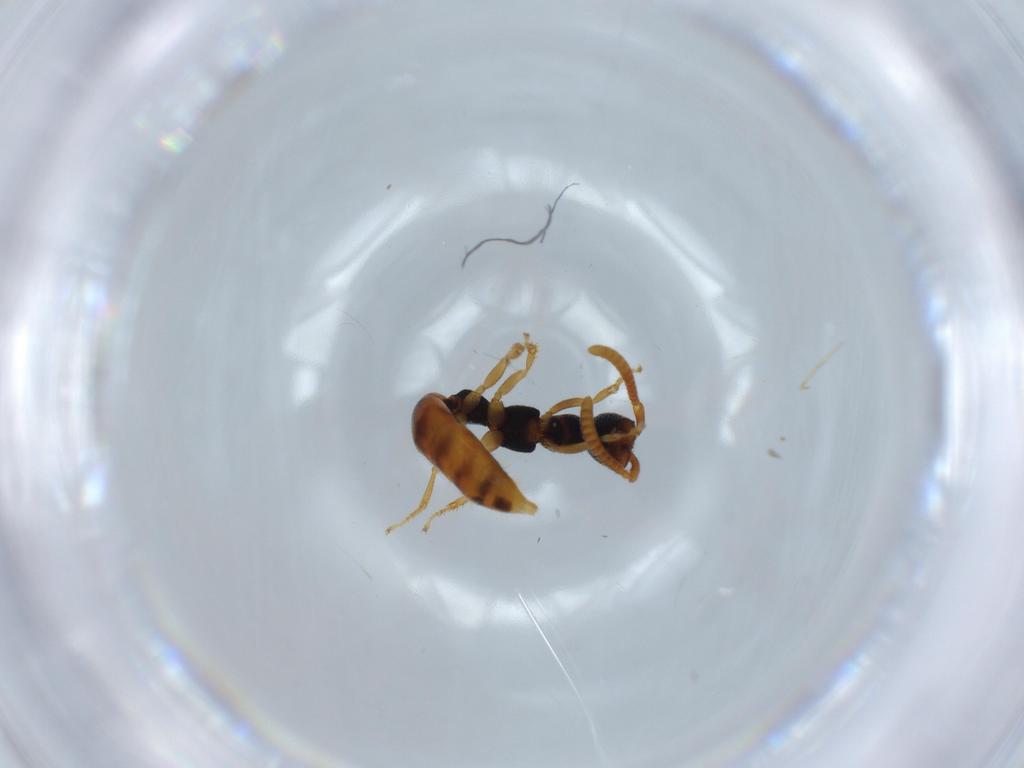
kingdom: Animalia
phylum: Arthropoda
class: Insecta
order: Hymenoptera
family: Bethylidae
